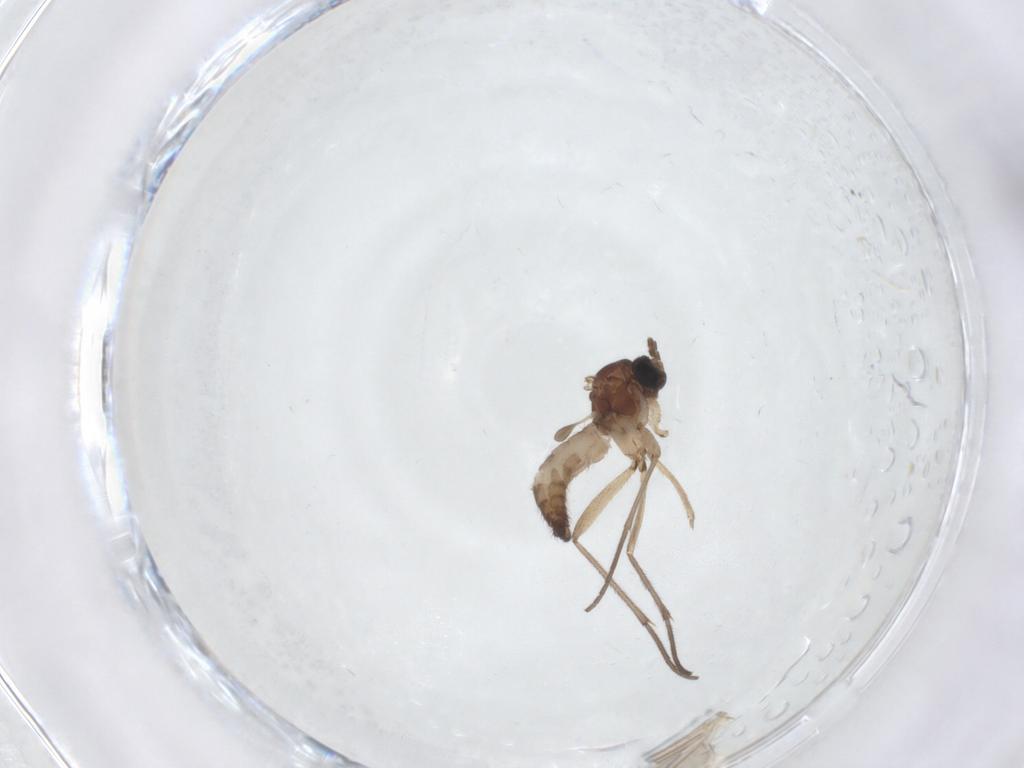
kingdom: Animalia
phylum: Arthropoda
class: Insecta
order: Diptera
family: Sciaridae
